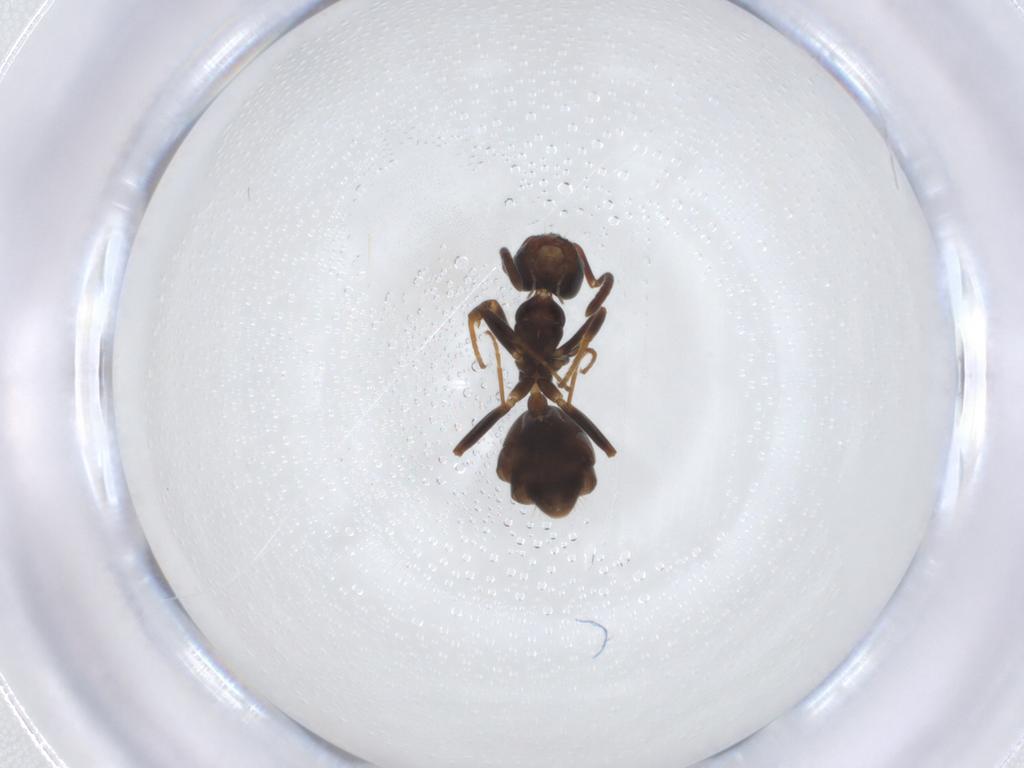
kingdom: Animalia
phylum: Arthropoda
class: Insecta
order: Hymenoptera
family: Formicidae
